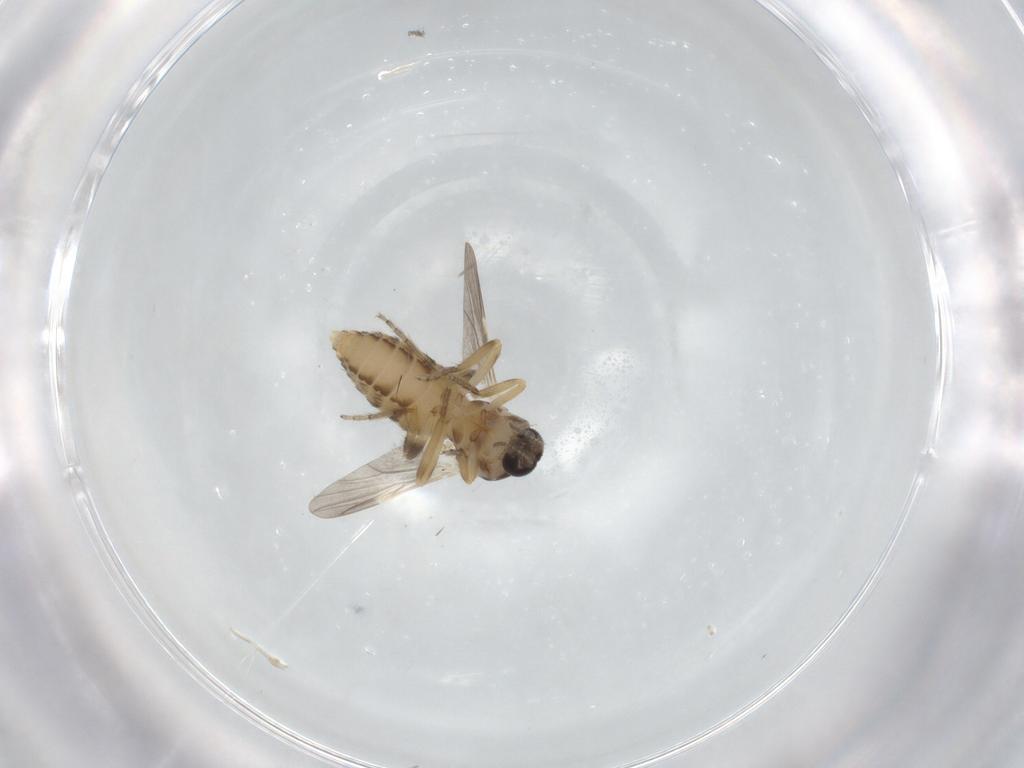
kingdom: Animalia
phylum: Arthropoda
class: Insecta
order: Diptera
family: Ceratopogonidae
